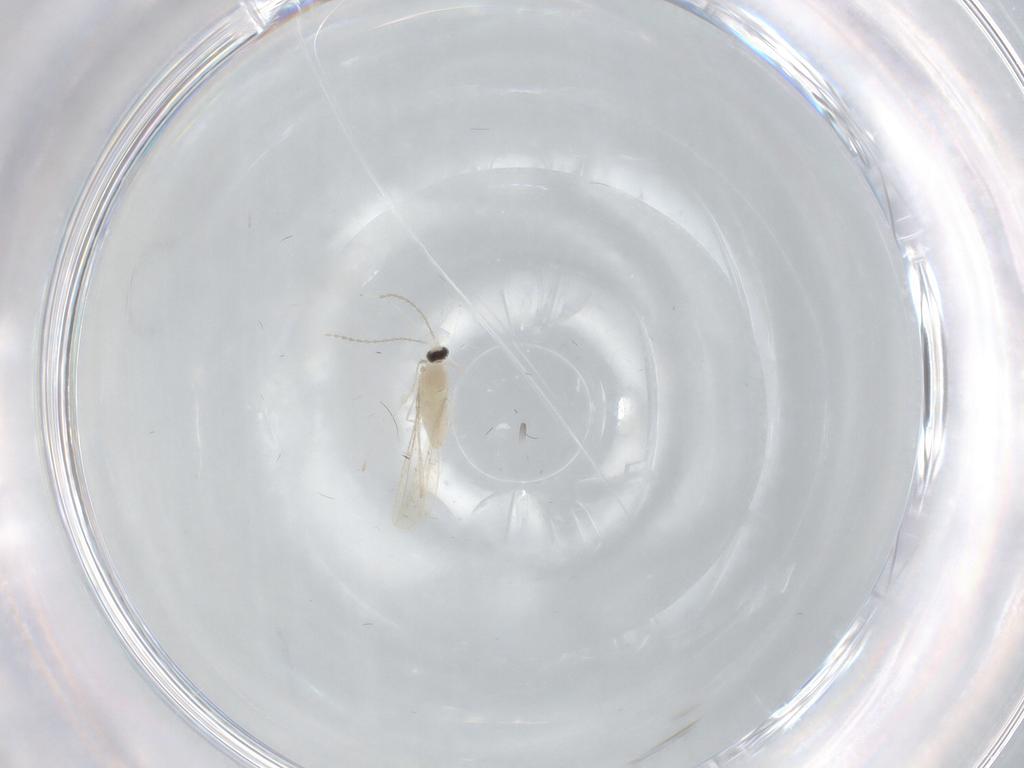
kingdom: Animalia
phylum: Arthropoda
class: Insecta
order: Diptera
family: Cecidomyiidae
